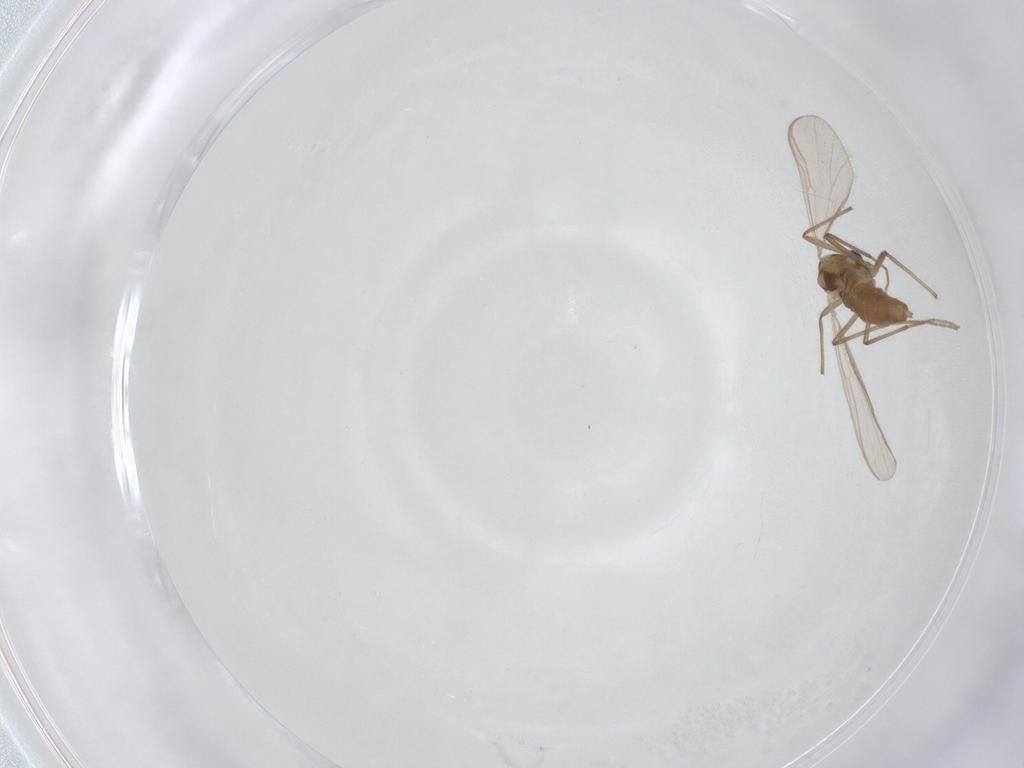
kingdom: Animalia
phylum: Arthropoda
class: Insecta
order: Diptera
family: Chironomidae
